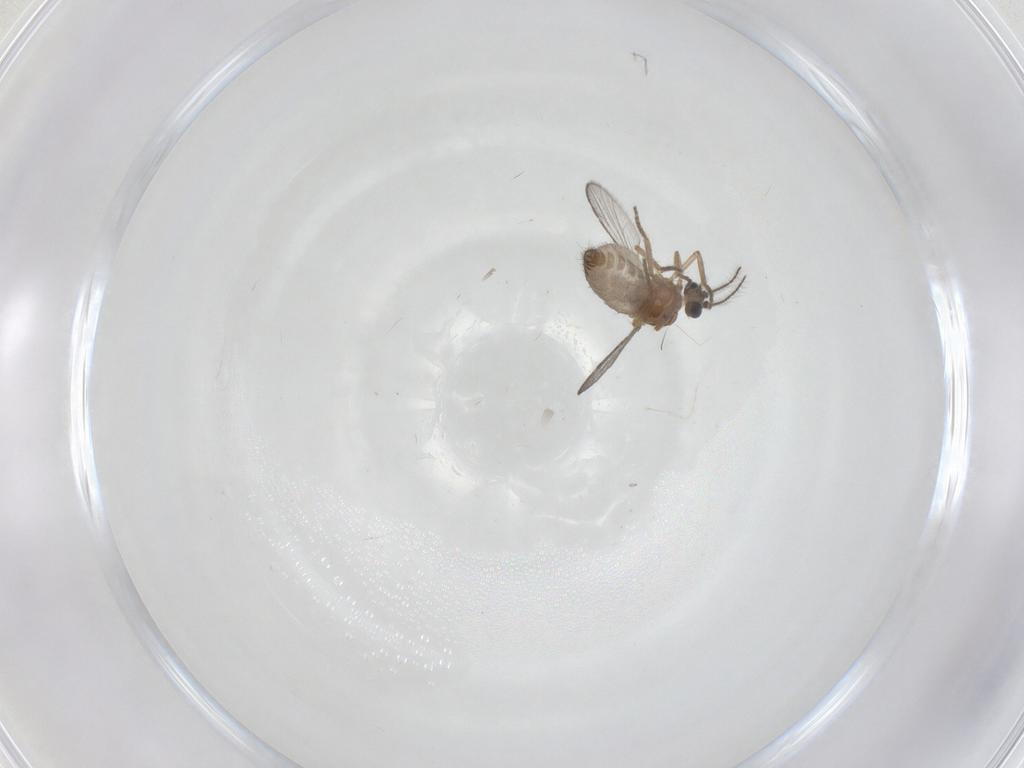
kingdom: Animalia
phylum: Arthropoda
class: Insecta
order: Diptera
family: Ceratopogonidae
